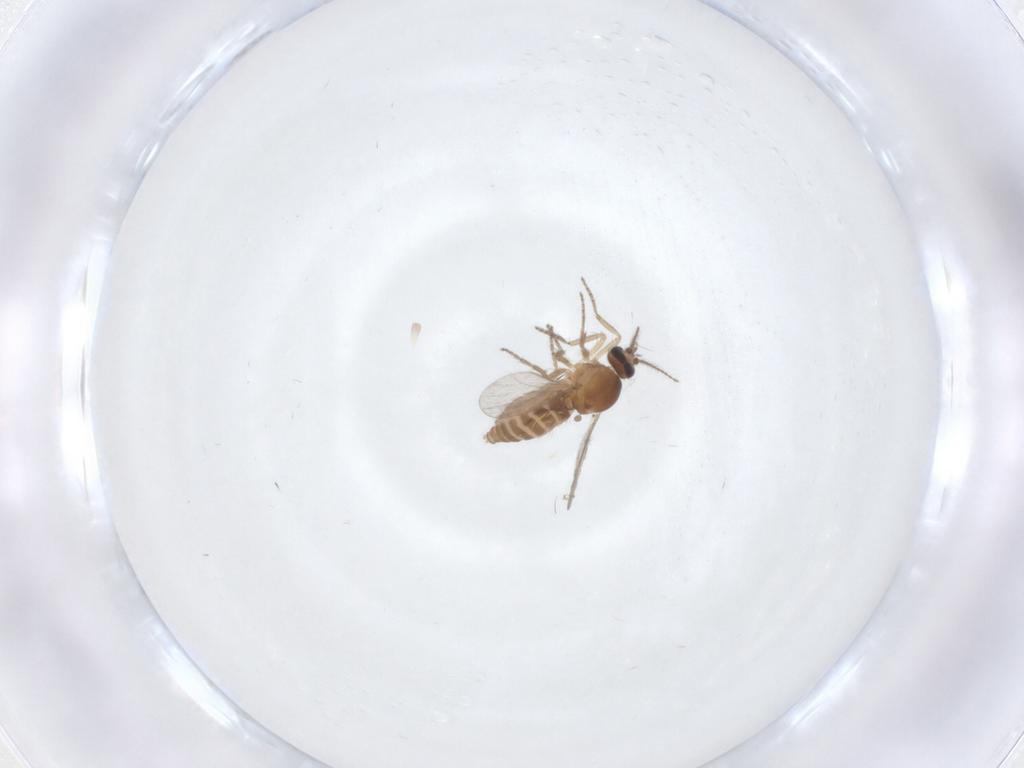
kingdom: Animalia
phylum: Arthropoda
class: Insecta
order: Diptera
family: Ceratopogonidae
